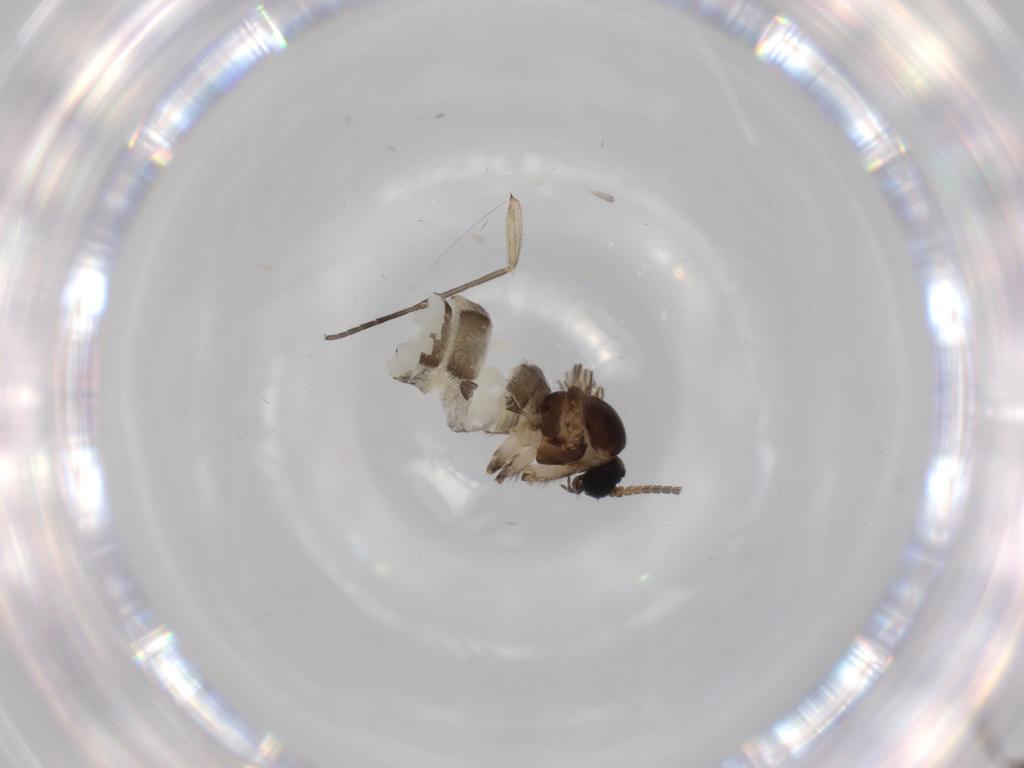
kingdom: Animalia
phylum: Arthropoda
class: Insecta
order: Diptera
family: Sciaridae
